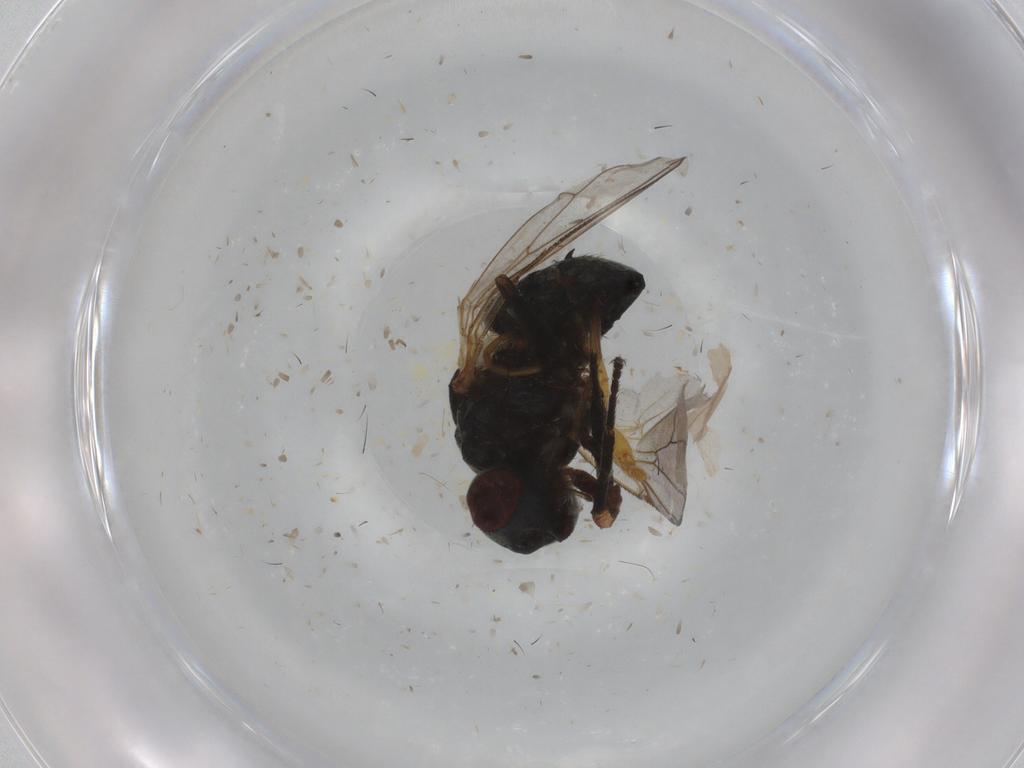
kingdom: Animalia
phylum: Arthropoda
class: Insecta
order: Diptera
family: Muscidae
